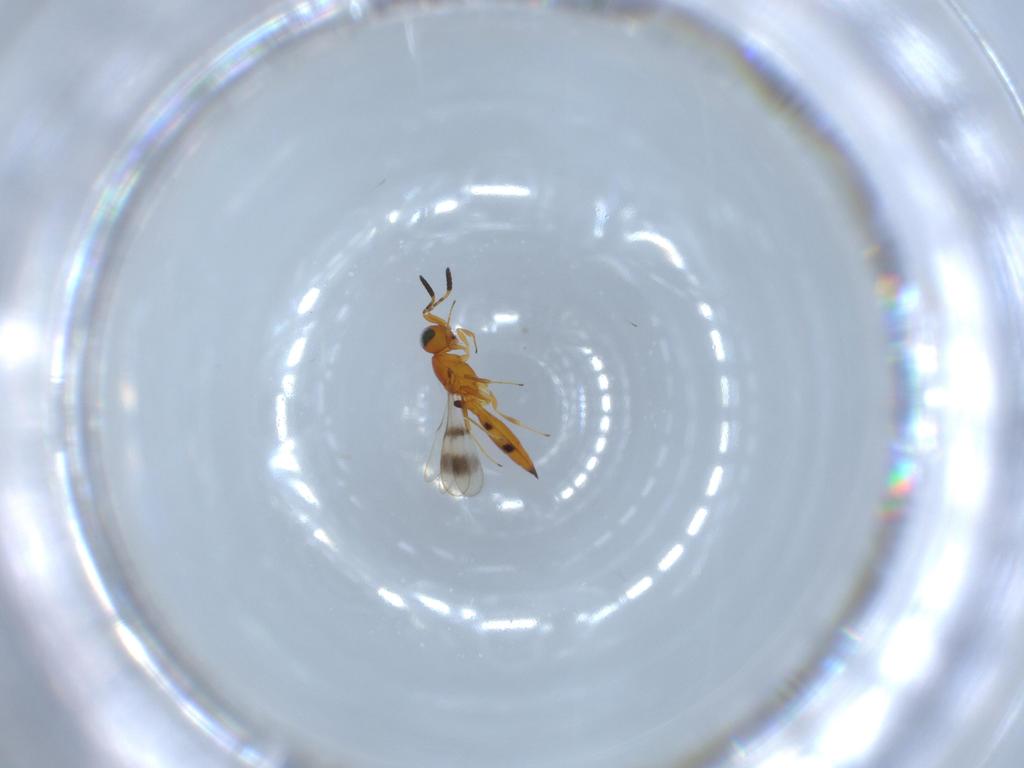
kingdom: Animalia
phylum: Arthropoda
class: Insecta
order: Hymenoptera
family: Scelionidae
